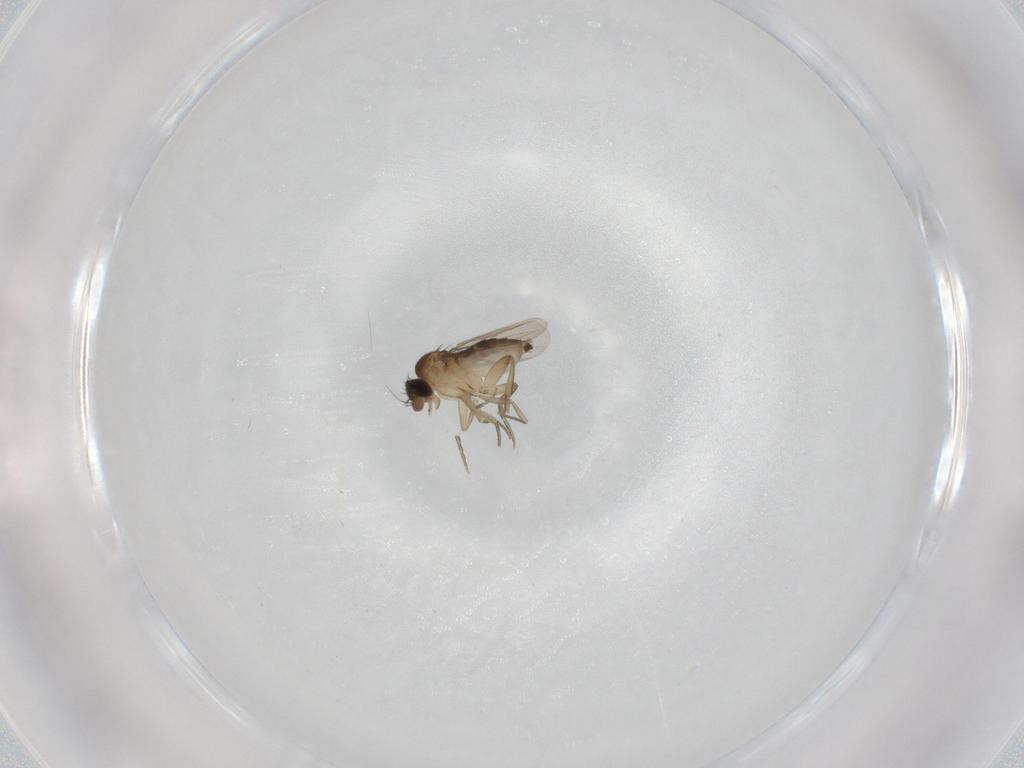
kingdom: Animalia
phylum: Arthropoda
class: Insecta
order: Diptera
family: Phoridae
